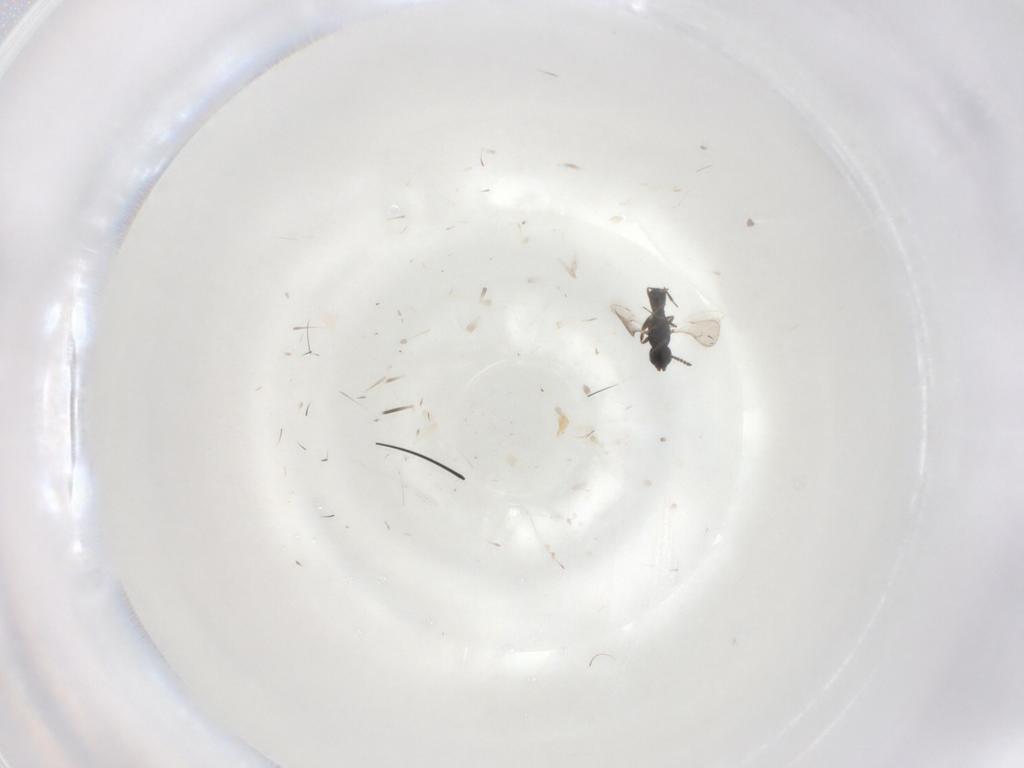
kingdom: Animalia
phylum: Arthropoda
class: Insecta
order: Hymenoptera
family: Scelionidae
